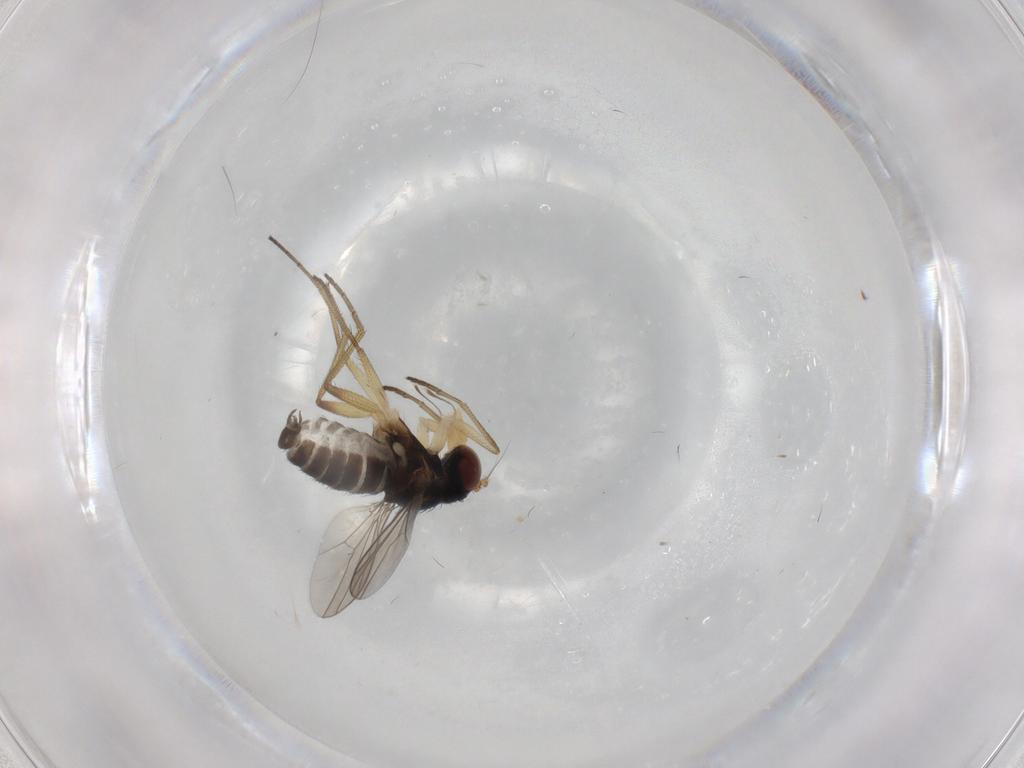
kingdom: Animalia
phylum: Arthropoda
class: Insecta
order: Diptera
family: Dolichopodidae
